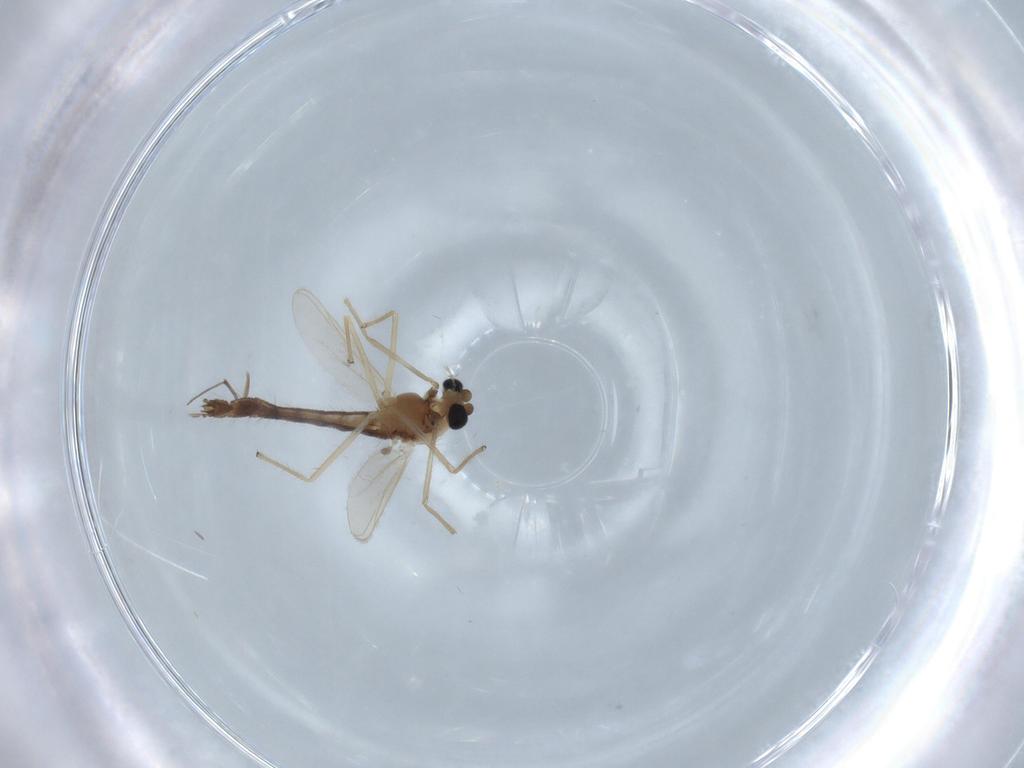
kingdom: Animalia
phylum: Arthropoda
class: Insecta
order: Diptera
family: Chironomidae
